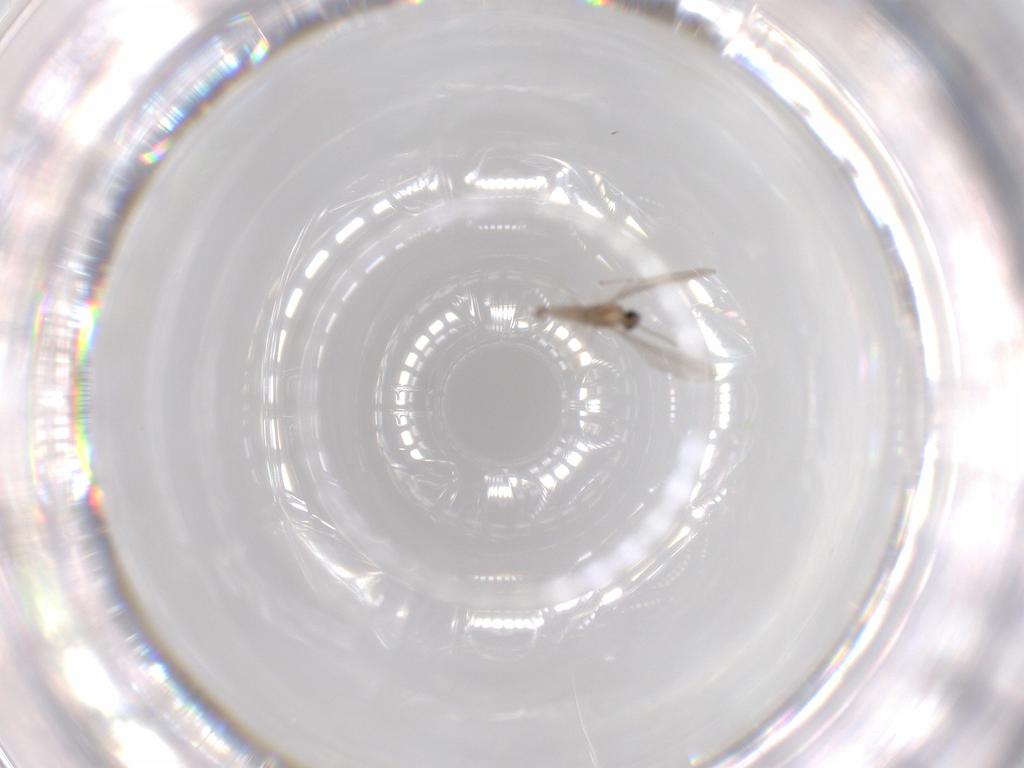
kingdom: Animalia
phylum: Arthropoda
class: Insecta
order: Diptera
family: Cecidomyiidae
